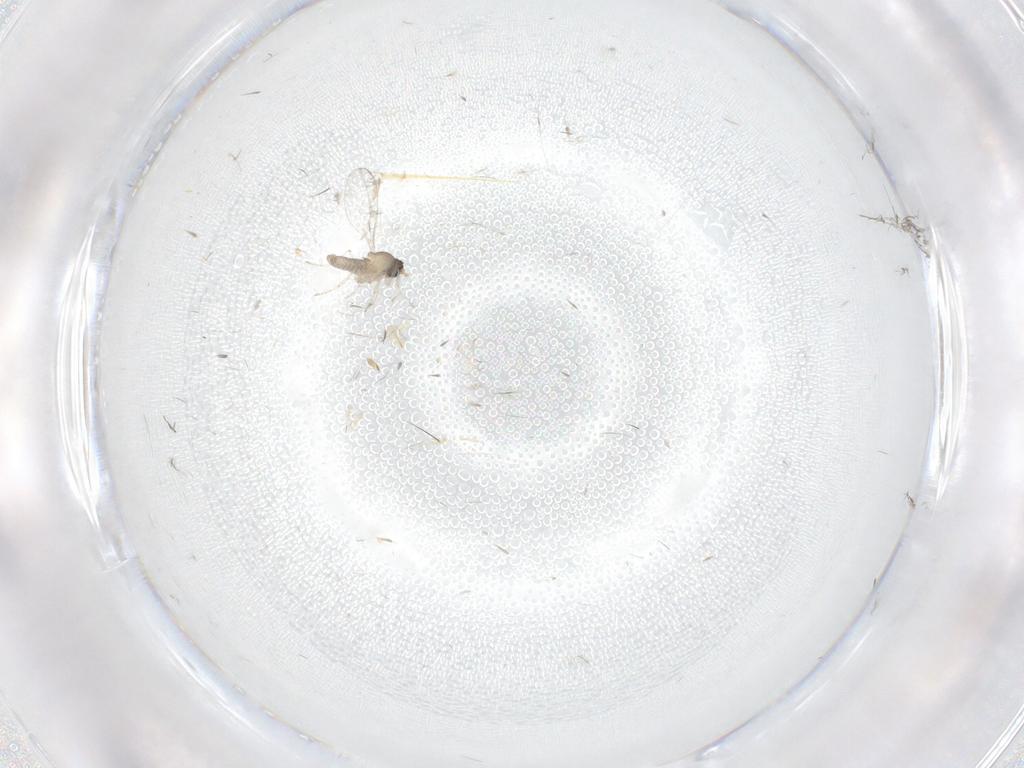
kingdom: Animalia
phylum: Arthropoda
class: Insecta
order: Diptera
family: Cecidomyiidae
